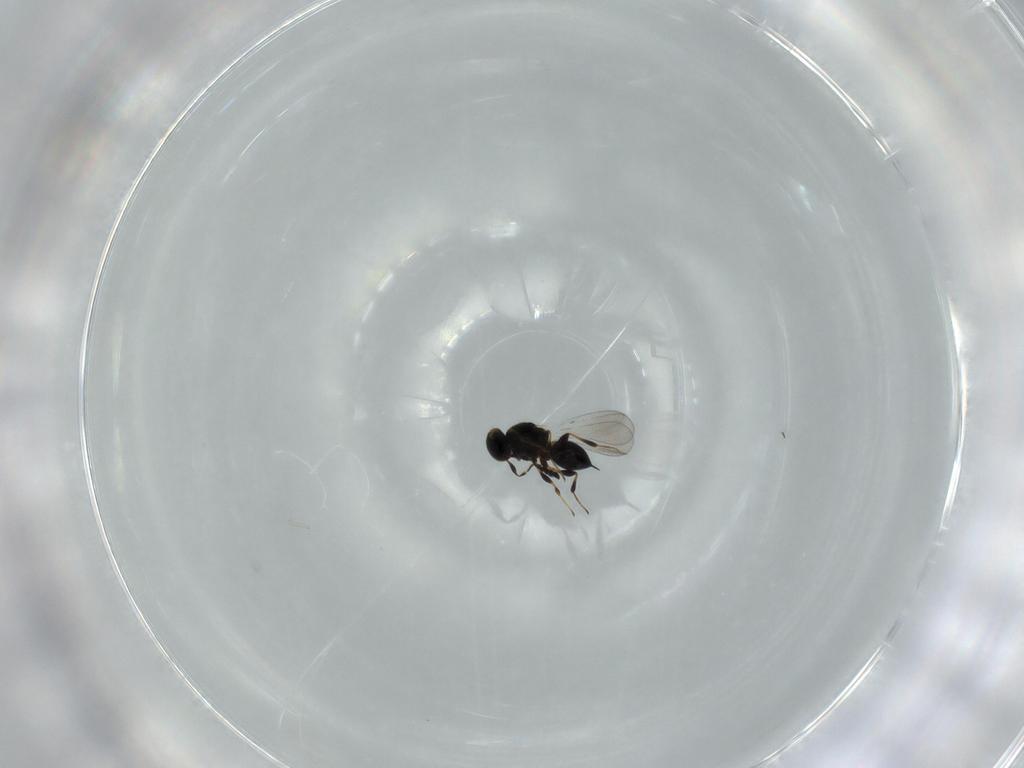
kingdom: Animalia
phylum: Arthropoda
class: Insecta
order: Hymenoptera
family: Platygastridae
